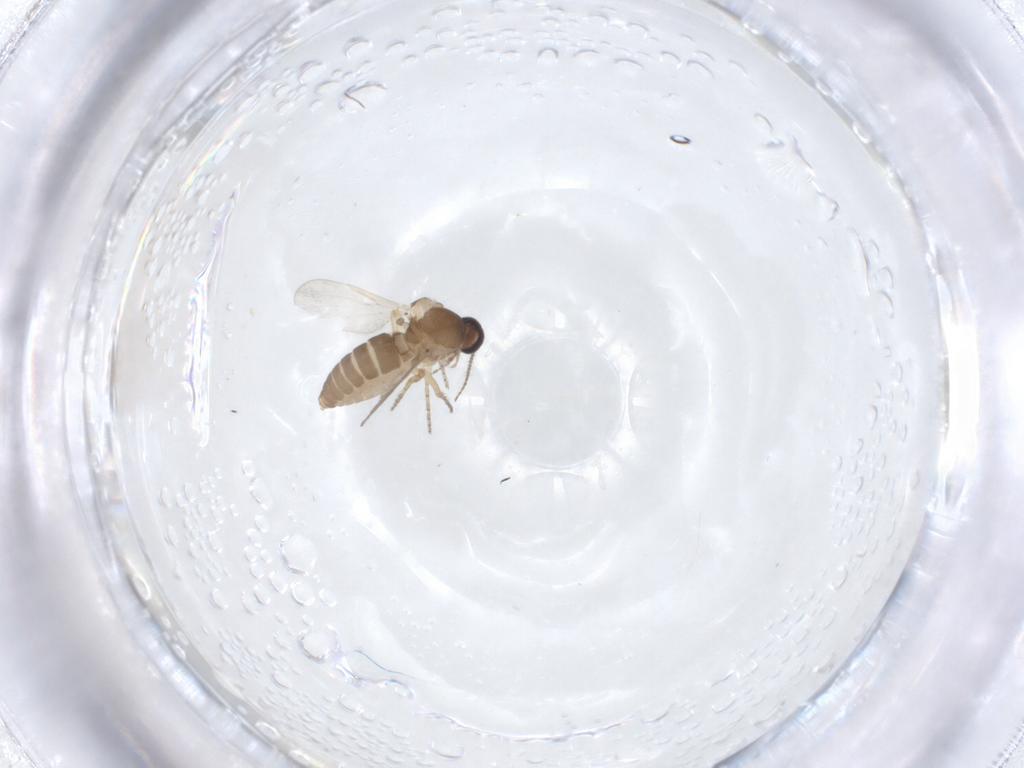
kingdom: Animalia
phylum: Arthropoda
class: Insecta
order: Diptera
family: Ceratopogonidae
